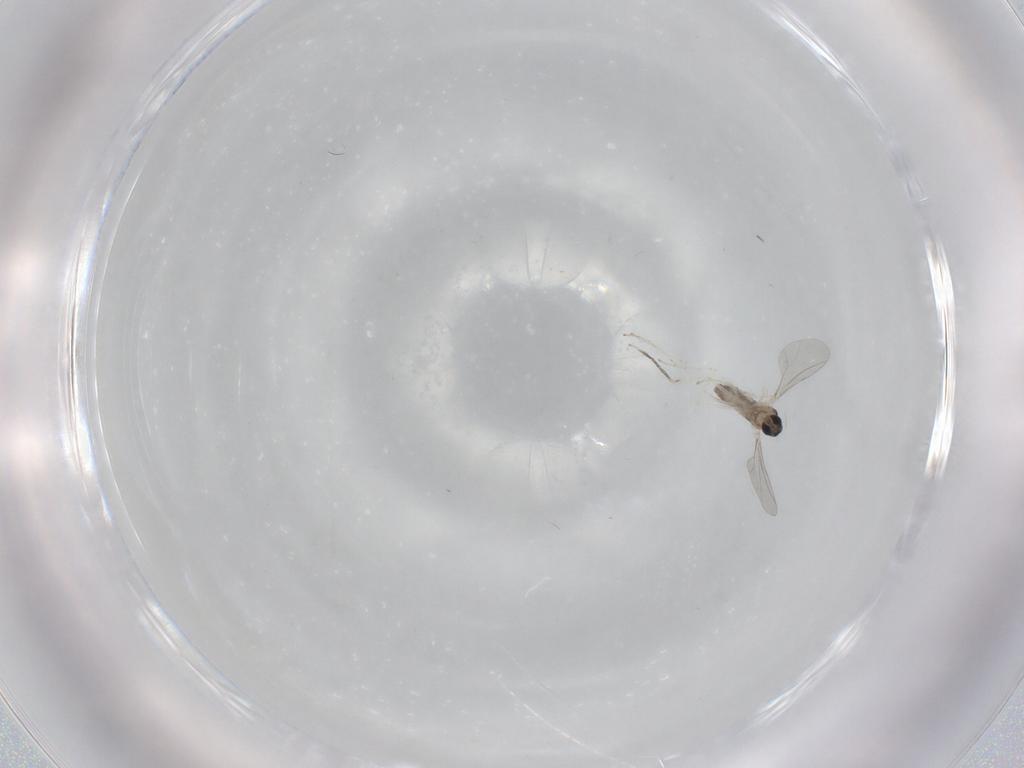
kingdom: Animalia
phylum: Arthropoda
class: Insecta
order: Diptera
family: Cecidomyiidae
